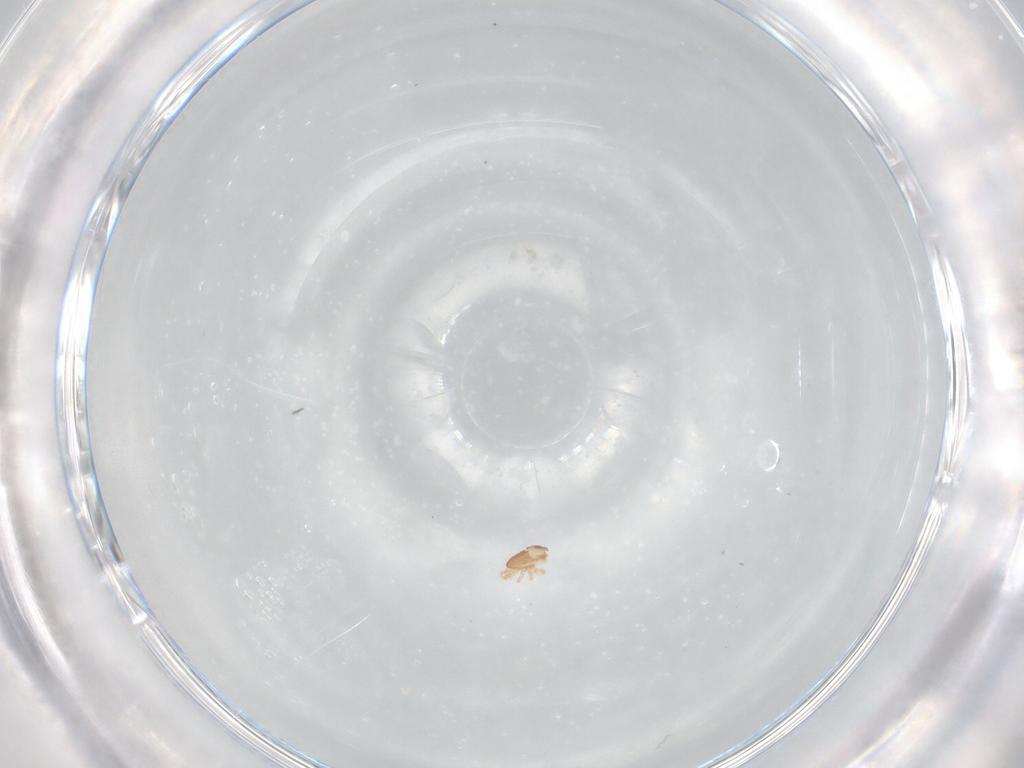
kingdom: Animalia
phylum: Arthropoda
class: Arachnida
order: Mesostigmata
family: Ascidae
